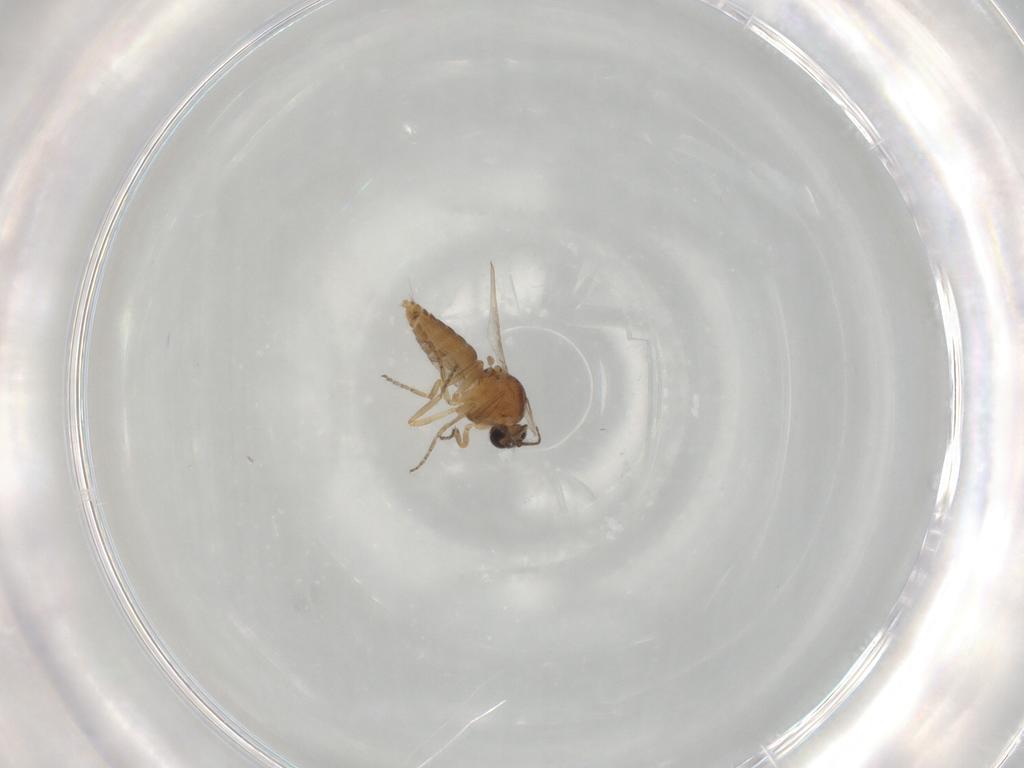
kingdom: Animalia
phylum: Arthropoda
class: Insecta
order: Diptera
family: Ceratopogonidae
